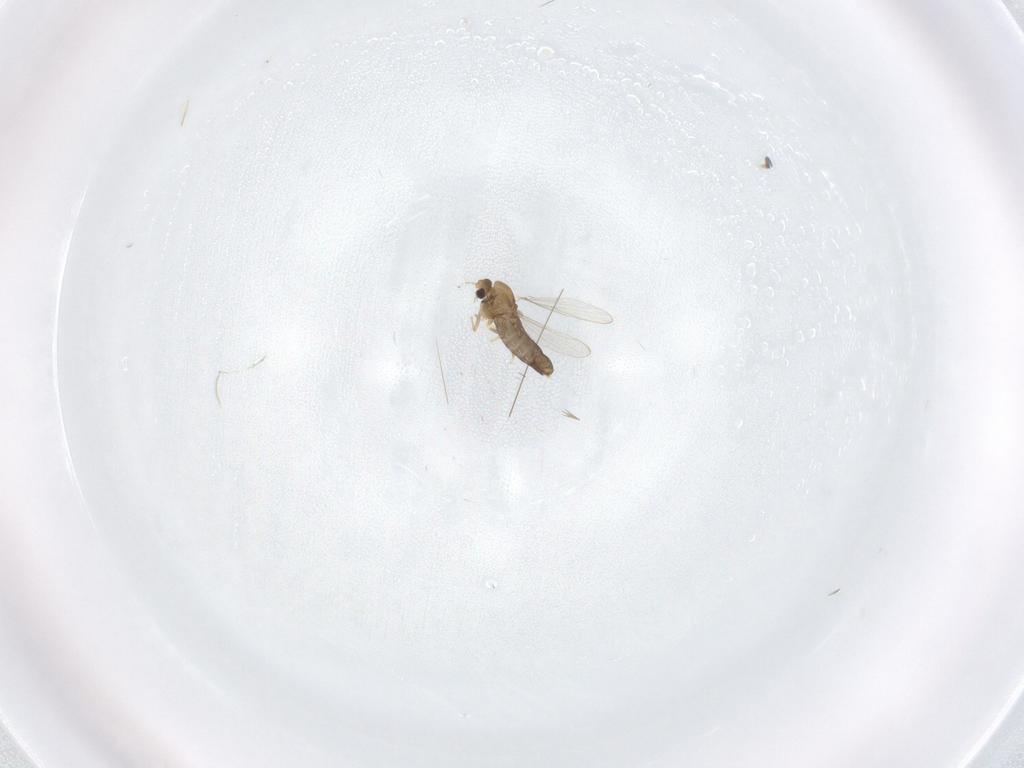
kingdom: Animalia
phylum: Arthropoda
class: Insecta
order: Diptera
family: Chironomidae
